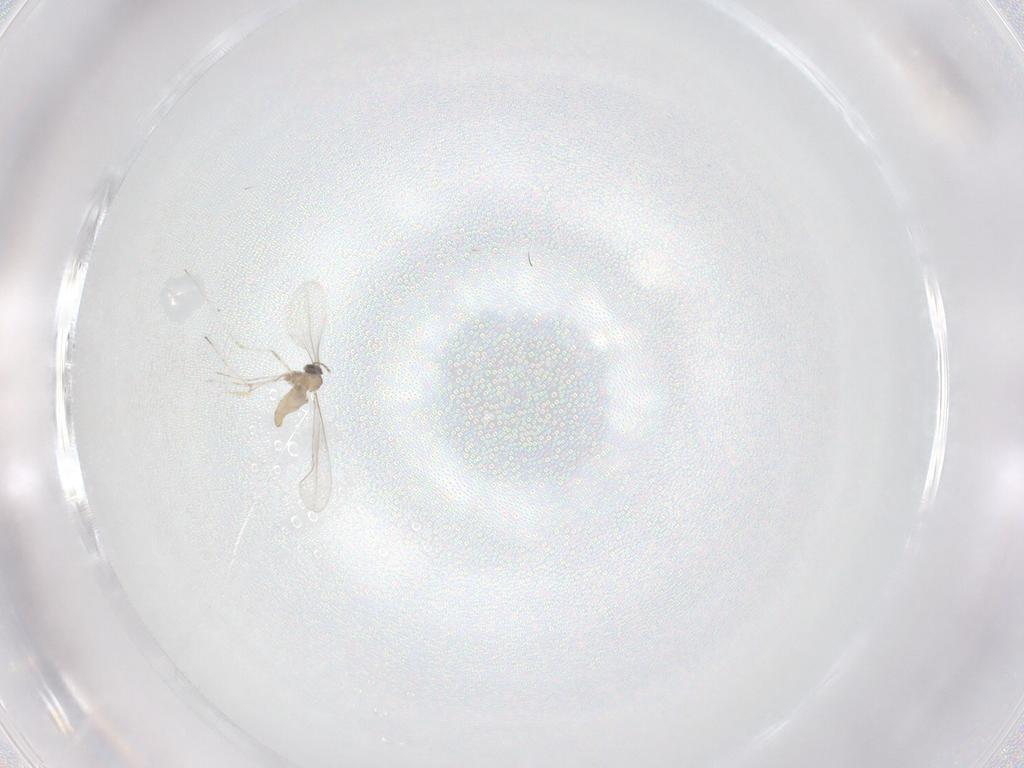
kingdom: Animalia
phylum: Arthropoda
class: Insecta
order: Diptera
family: Cecidomyiidae
